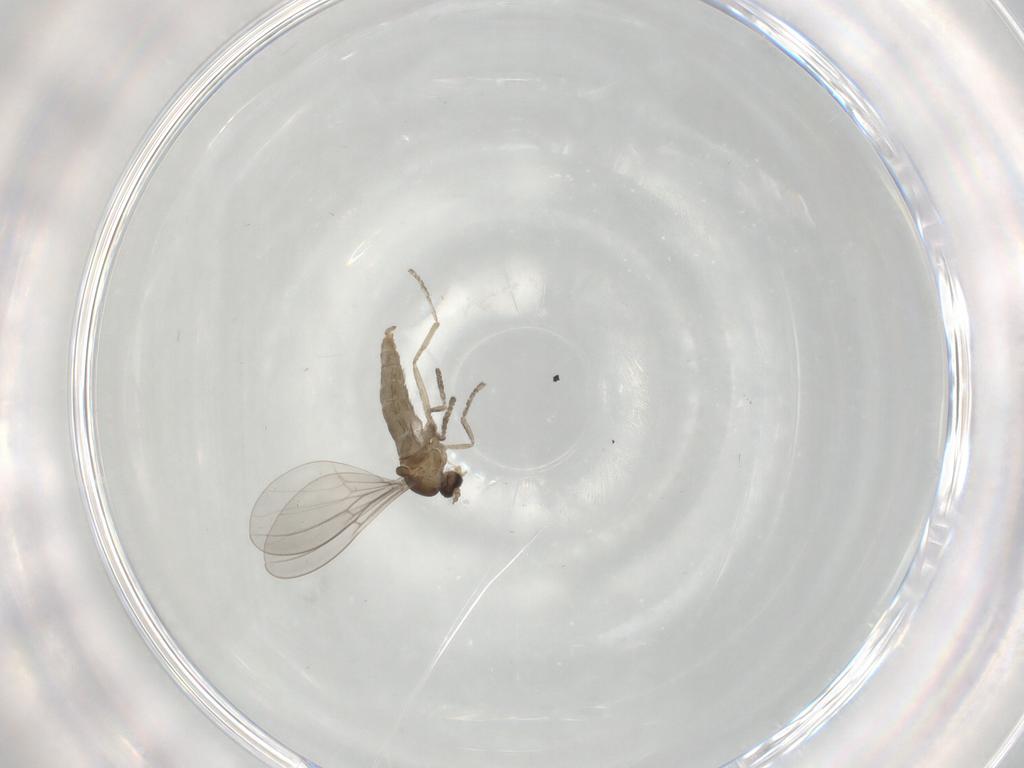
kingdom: Animalia
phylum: Arthropoda
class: Insecta
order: Diptera
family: Cecidomyiidae
